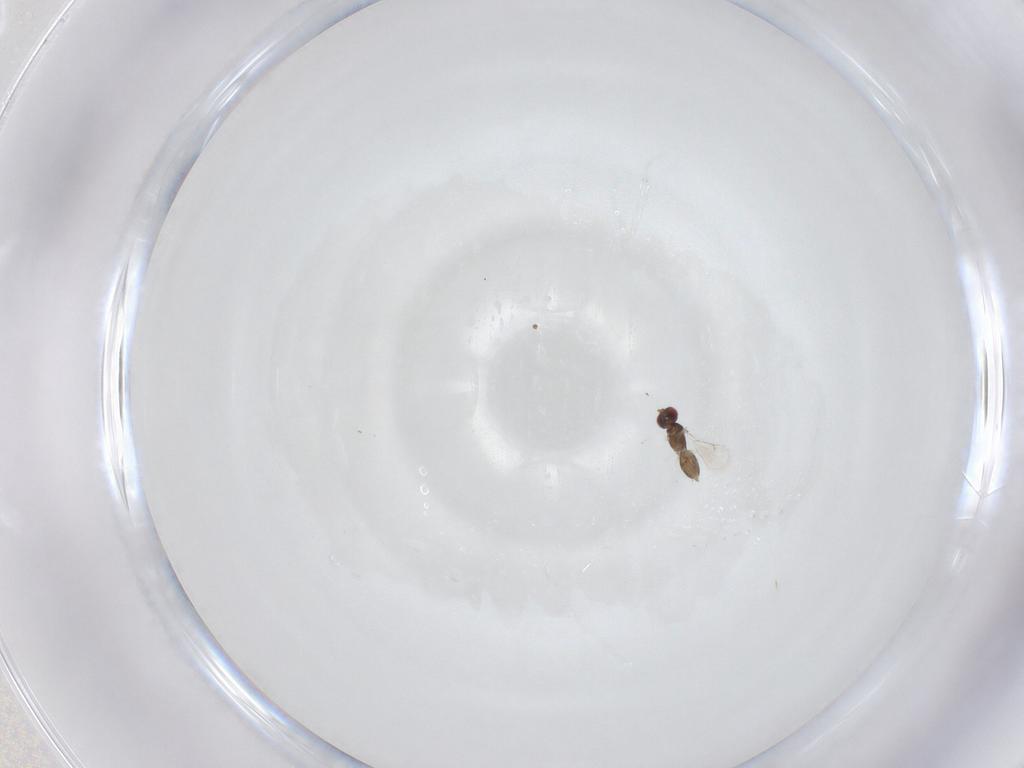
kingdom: Animalia
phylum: Arthropoda
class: Insecta
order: Hymenoptera
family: Eulophidae
